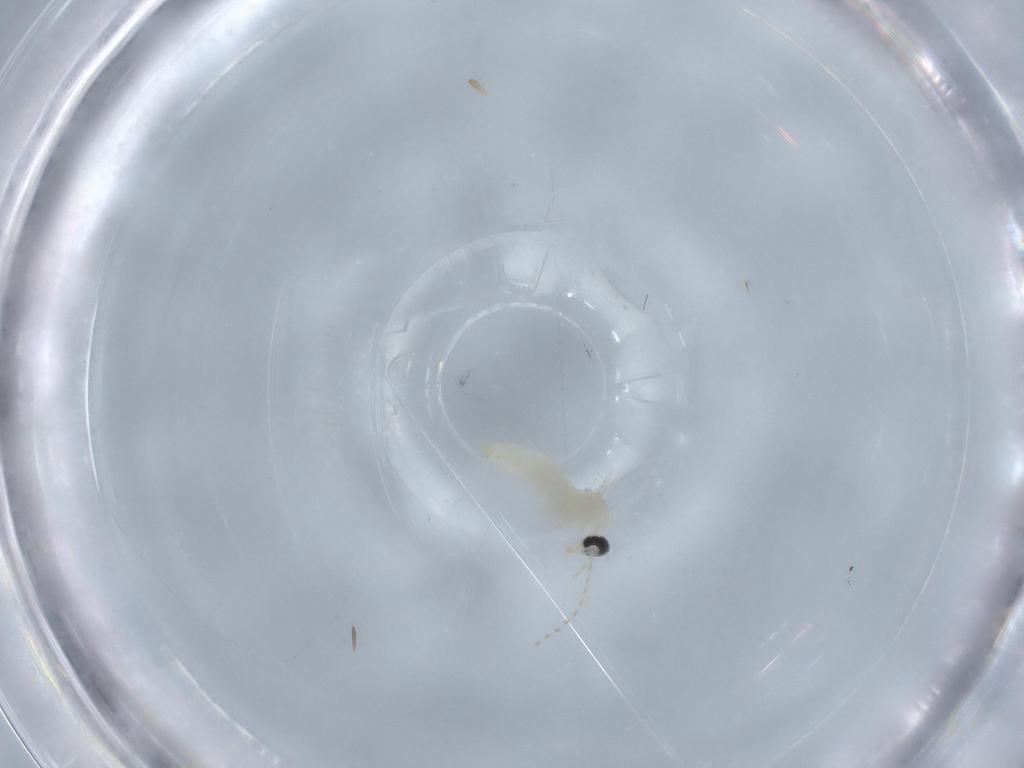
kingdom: Animalia
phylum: Arthropoda
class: Insecta
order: Diptera
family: Cecidomyiidae
